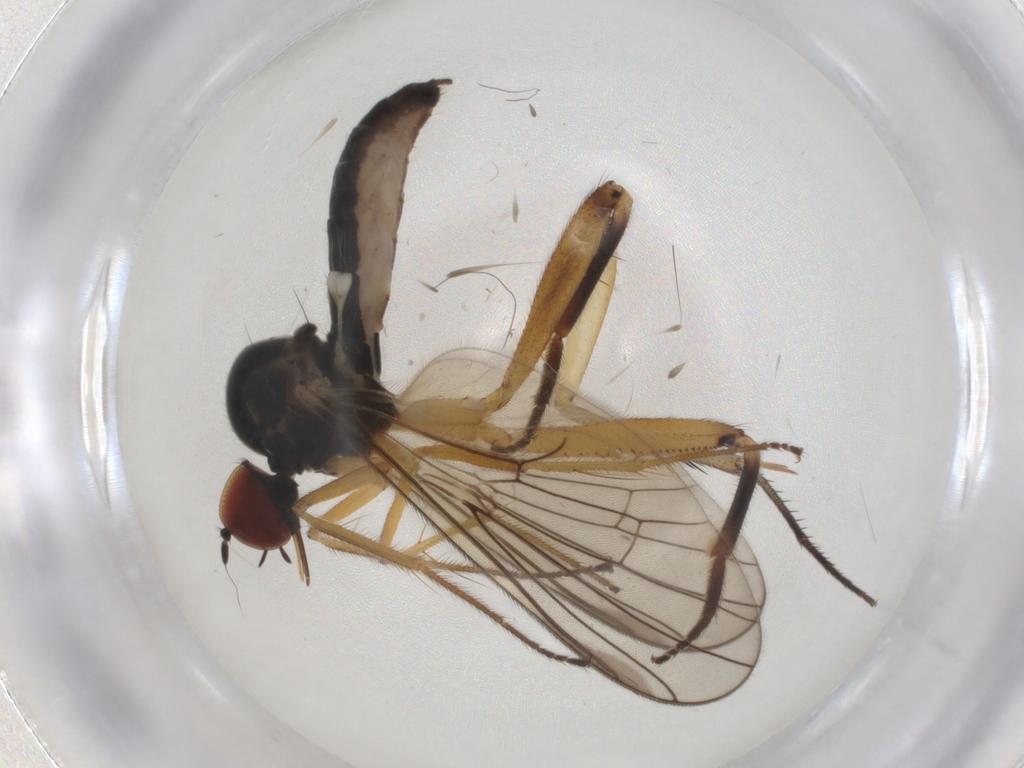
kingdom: Animalia
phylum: Arthropoda
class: Insecta
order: Diptera
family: Hybotidae
